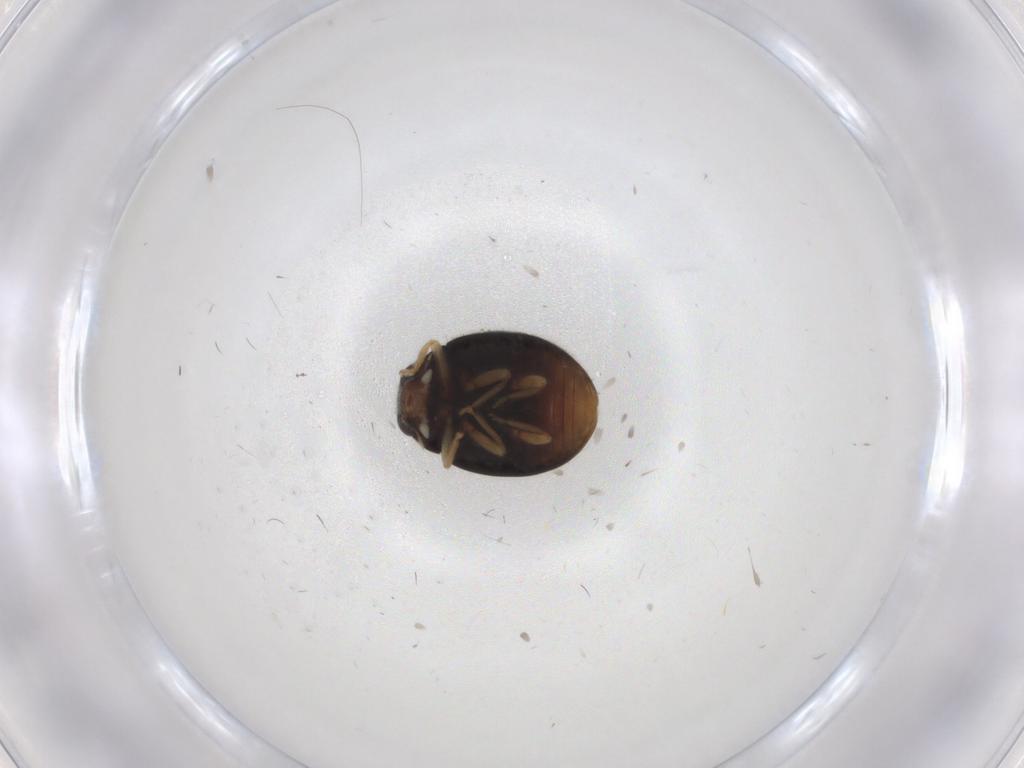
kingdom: Animalia
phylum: Arthropoda
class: Insecta
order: Coleoptera
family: Coccinellidae
